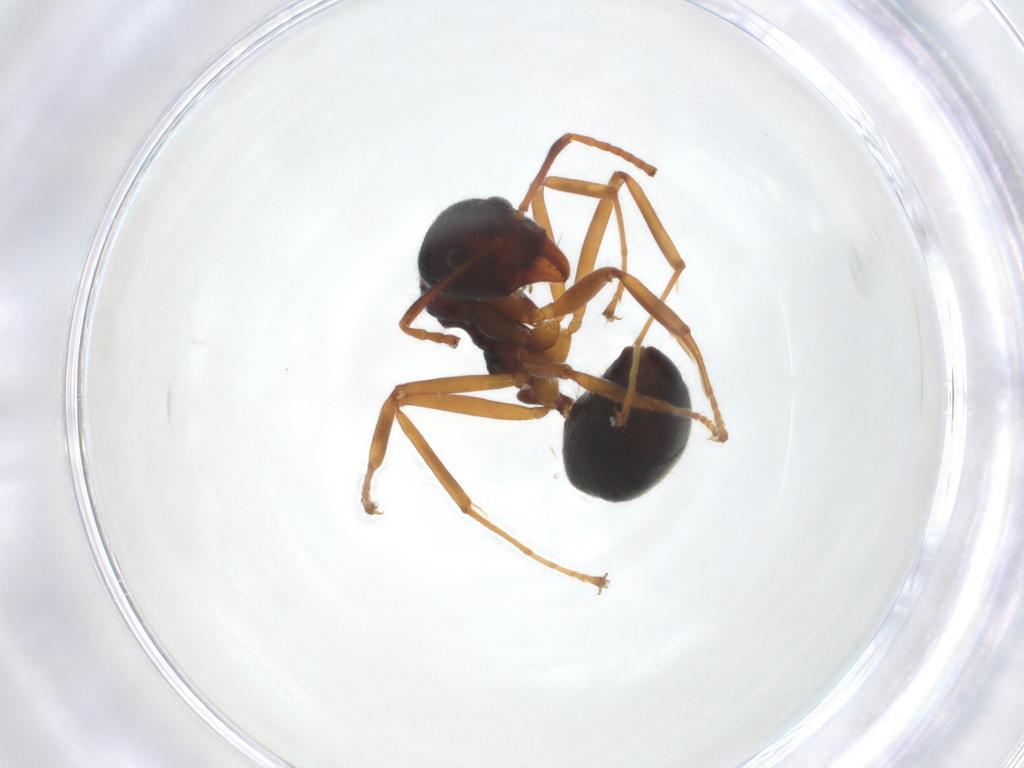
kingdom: Animalia
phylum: Arthropoda
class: Insecta
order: Hymenoptera
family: Formicidae
